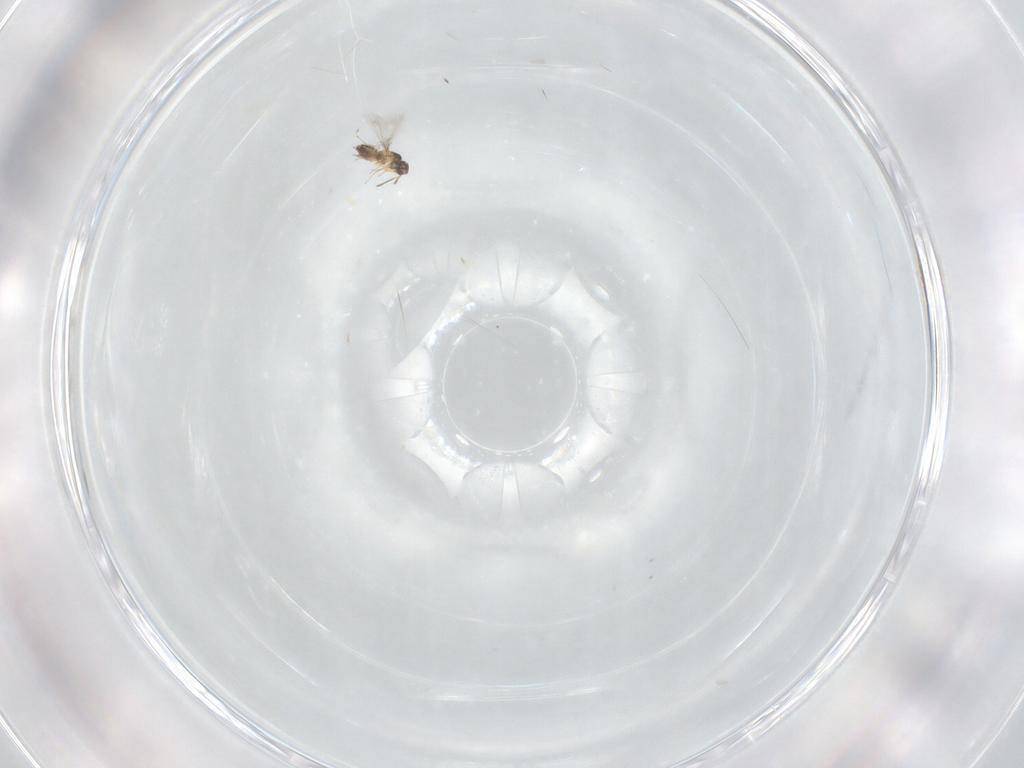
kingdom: Animalia
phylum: Arthropoda
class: Insecta
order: Hymenoptera
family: Mymaridae
